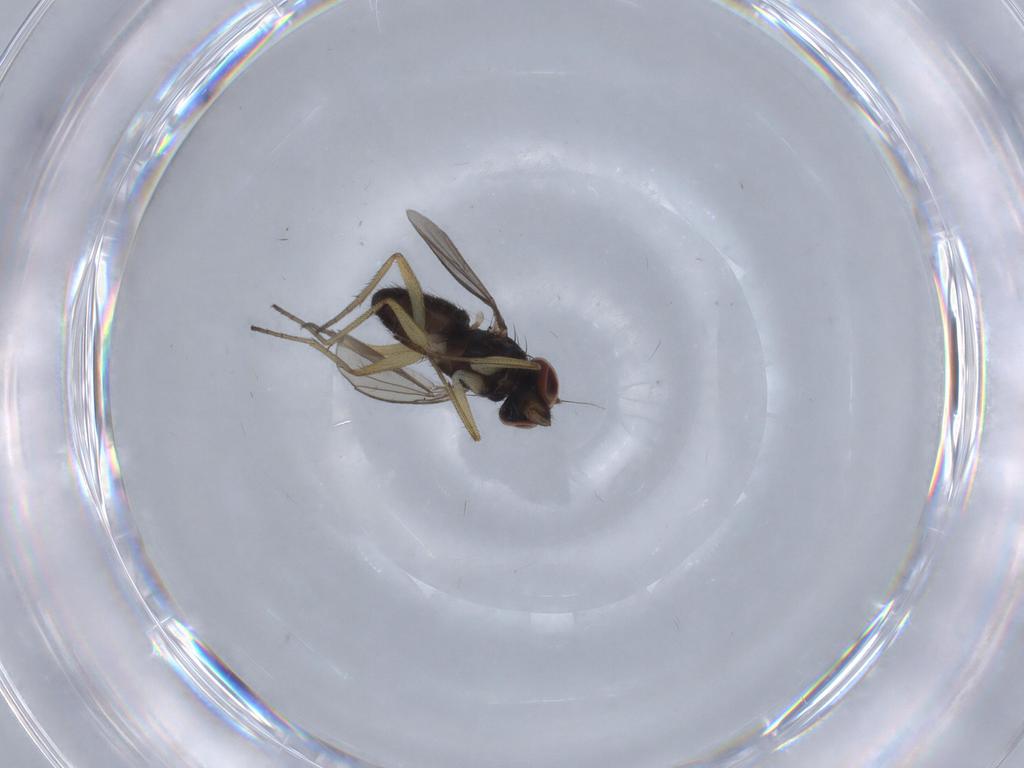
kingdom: Animalia
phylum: Arthropoda
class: Insecta
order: Diptera
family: Dolichopodidae
